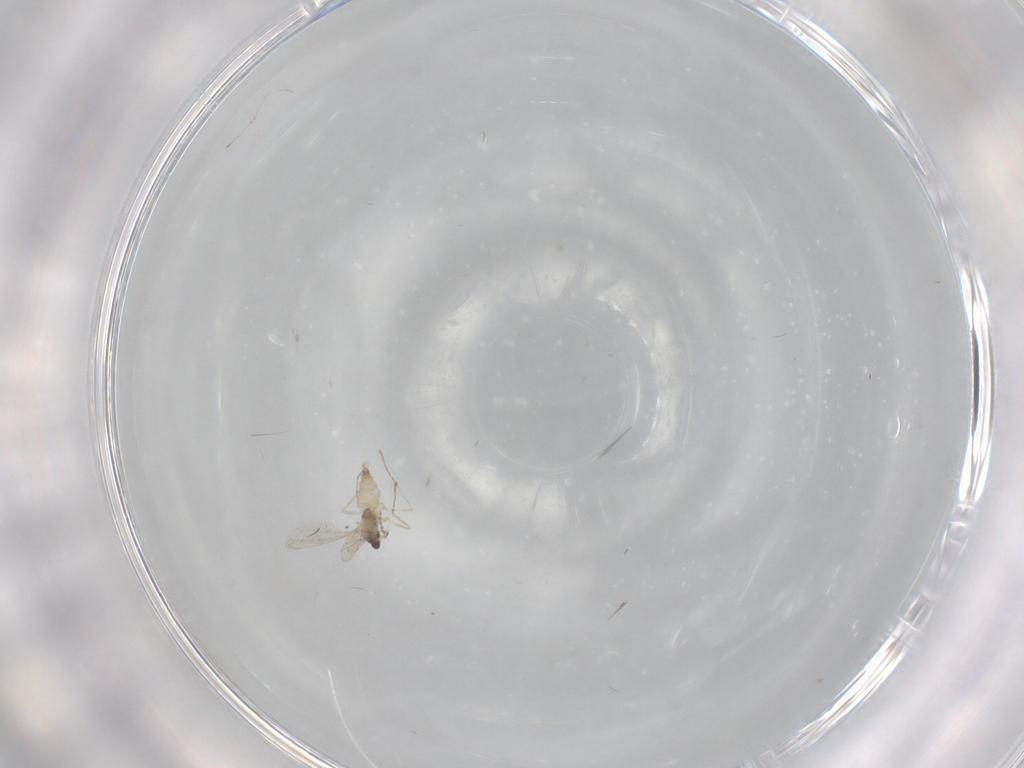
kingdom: Animalia
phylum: Arthropoda
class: Insecta
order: Diptera
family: Cecidomyiidae
